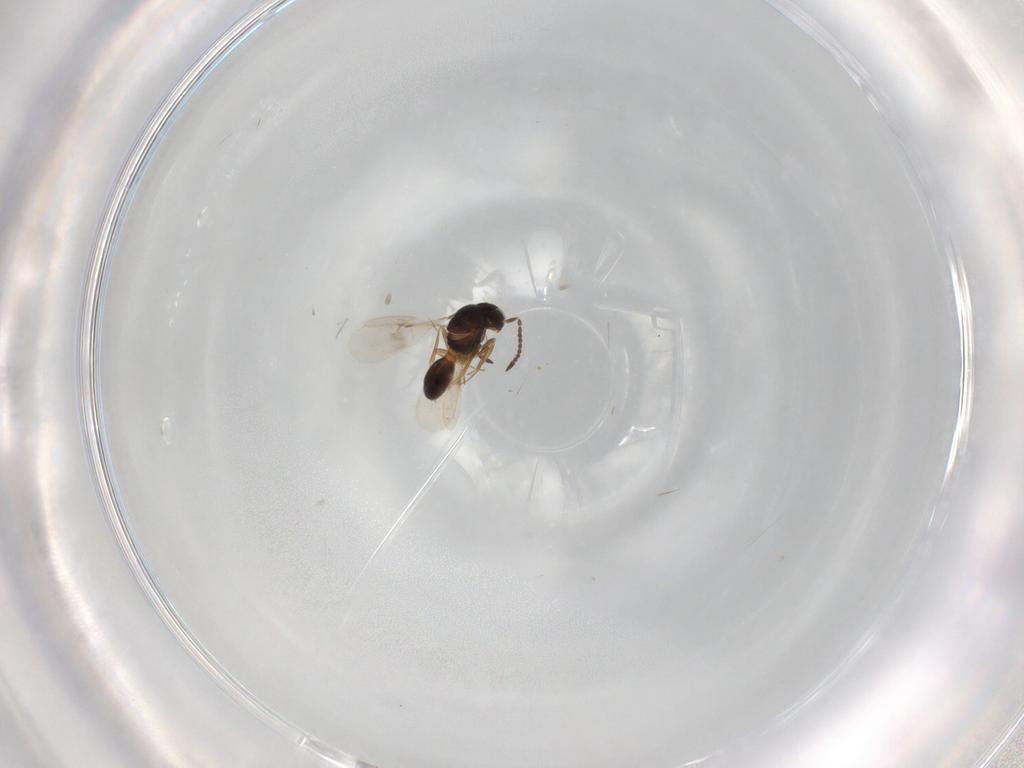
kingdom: Animalia
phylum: Arthropoda
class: Insecta
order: Hymenoptera
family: Scelionidae
